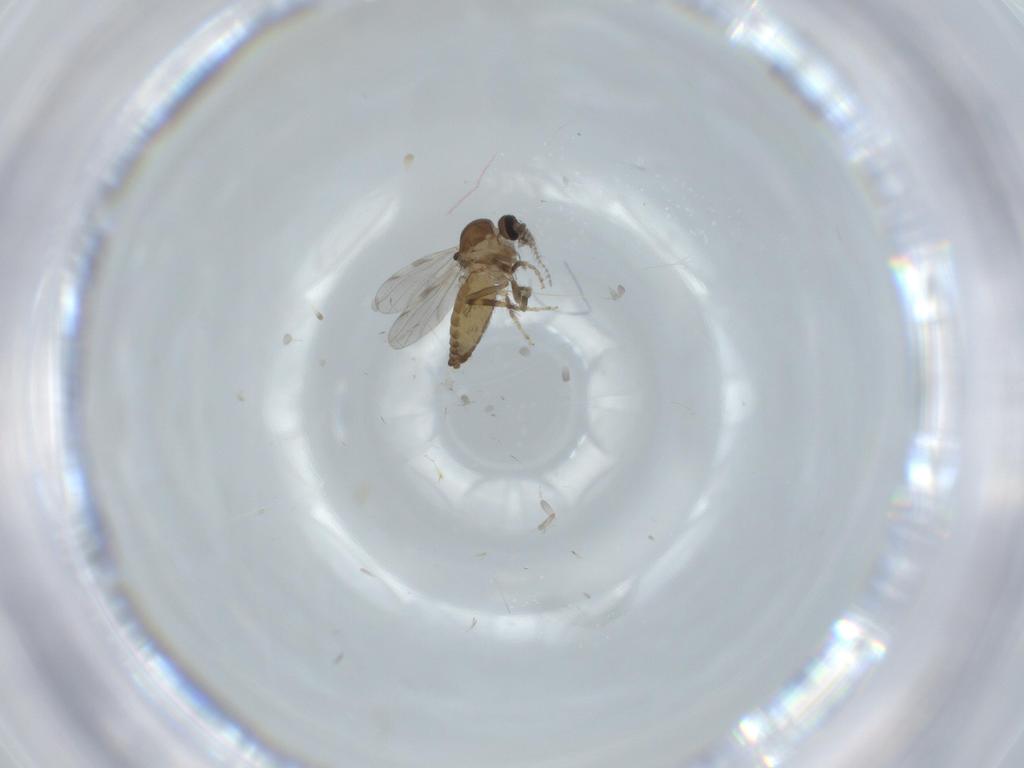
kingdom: Animalia
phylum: Arthropoda
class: Insecta
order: Diptera
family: Ceratopogonidae
